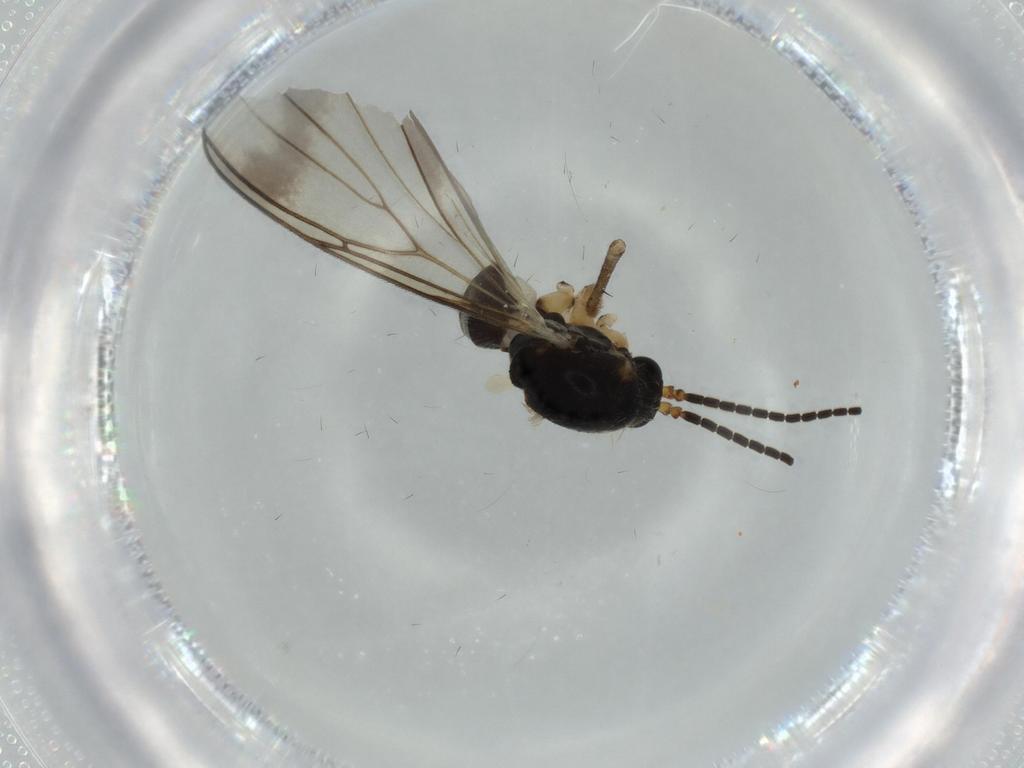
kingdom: Animalia
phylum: Arthropoda
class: Insecta
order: Diptera
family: Mycetophilidae
